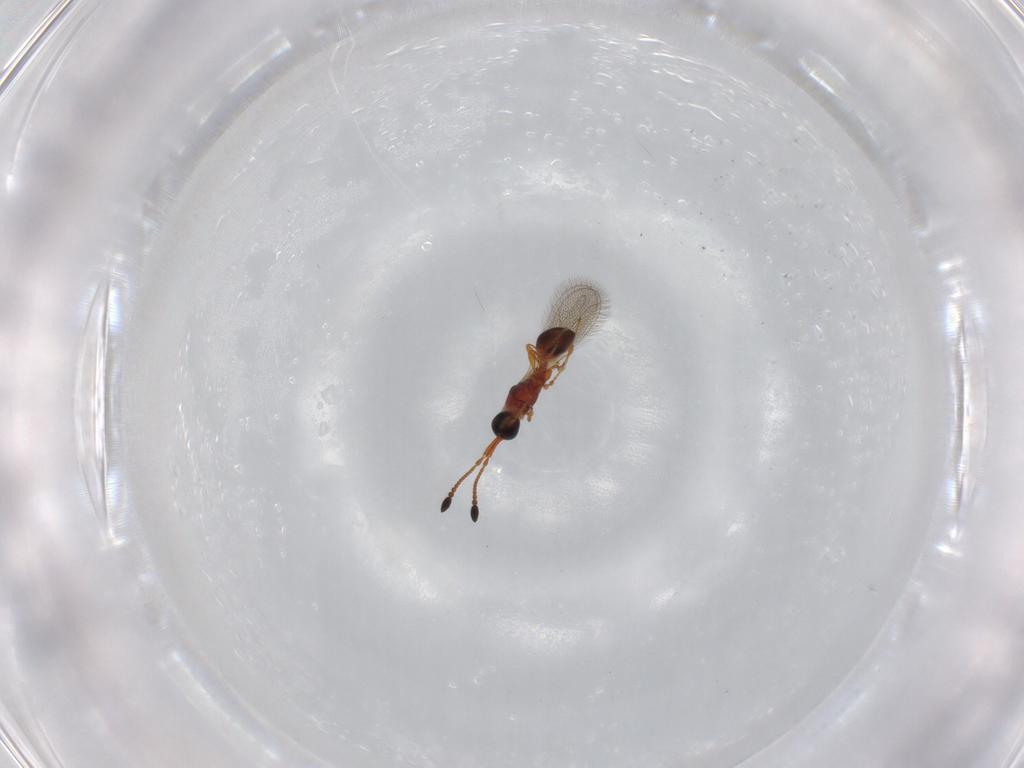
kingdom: Animalia
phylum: Arthropoda
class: Insecta
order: Hymenoptera
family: Diapriidae
